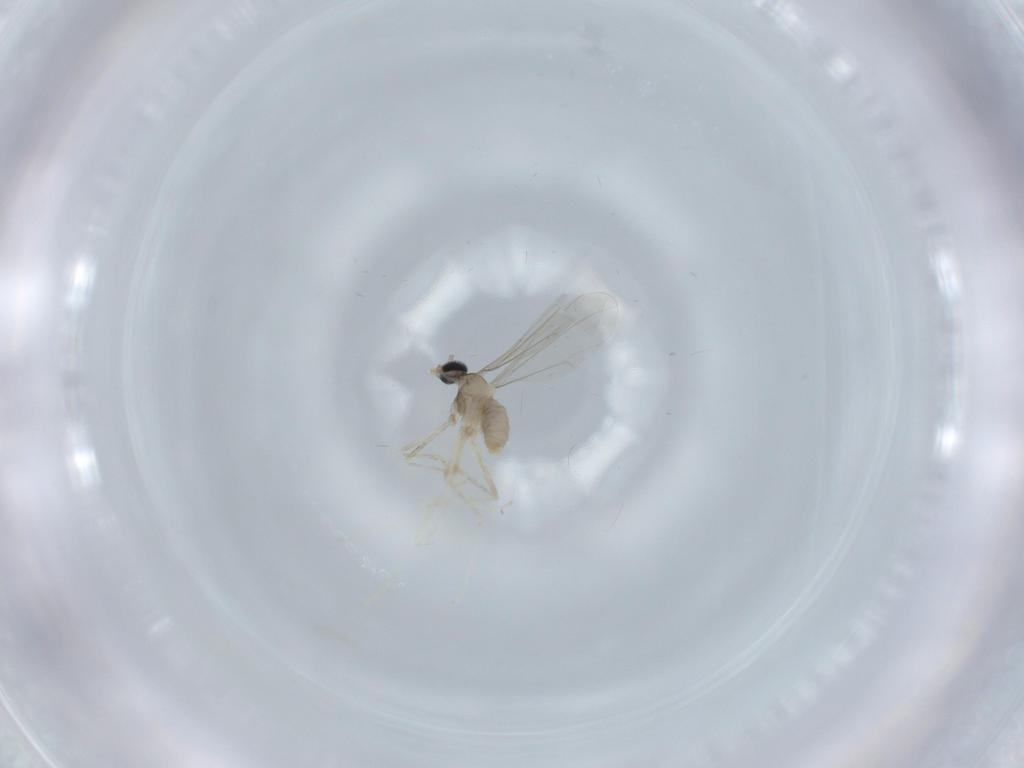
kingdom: Animalia
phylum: Arthropoda
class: Insecta
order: Diptera
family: Cecidomyiidae
